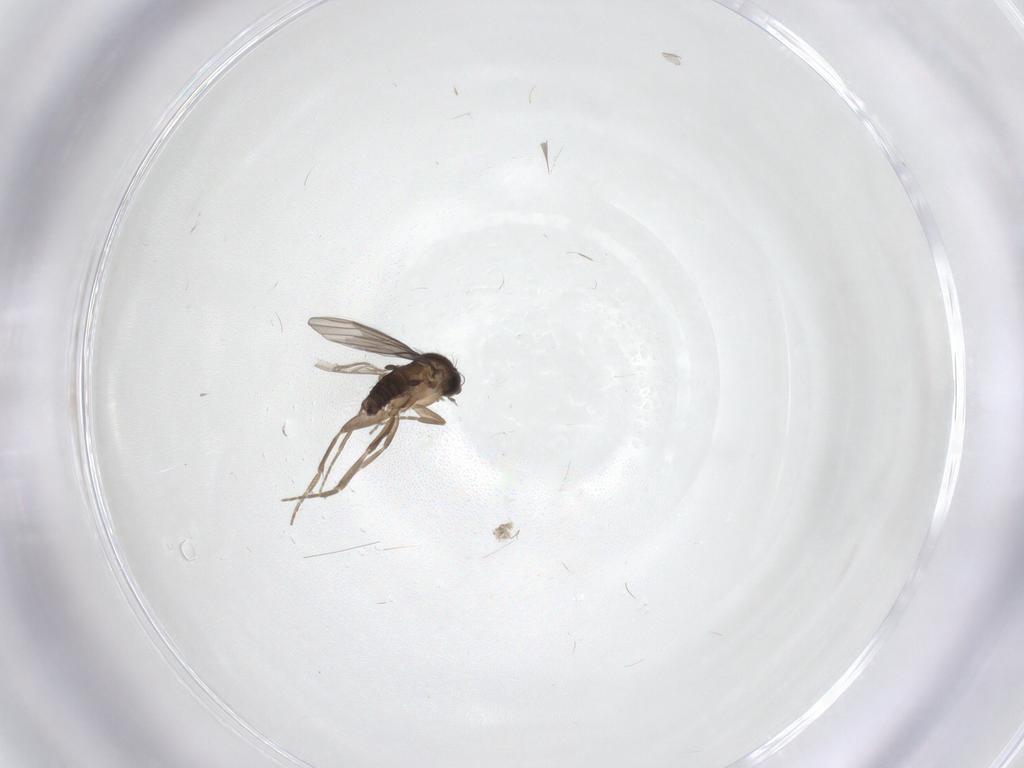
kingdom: Animalia
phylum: Arthropoda
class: Insecta
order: Diptera
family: Phoridae
